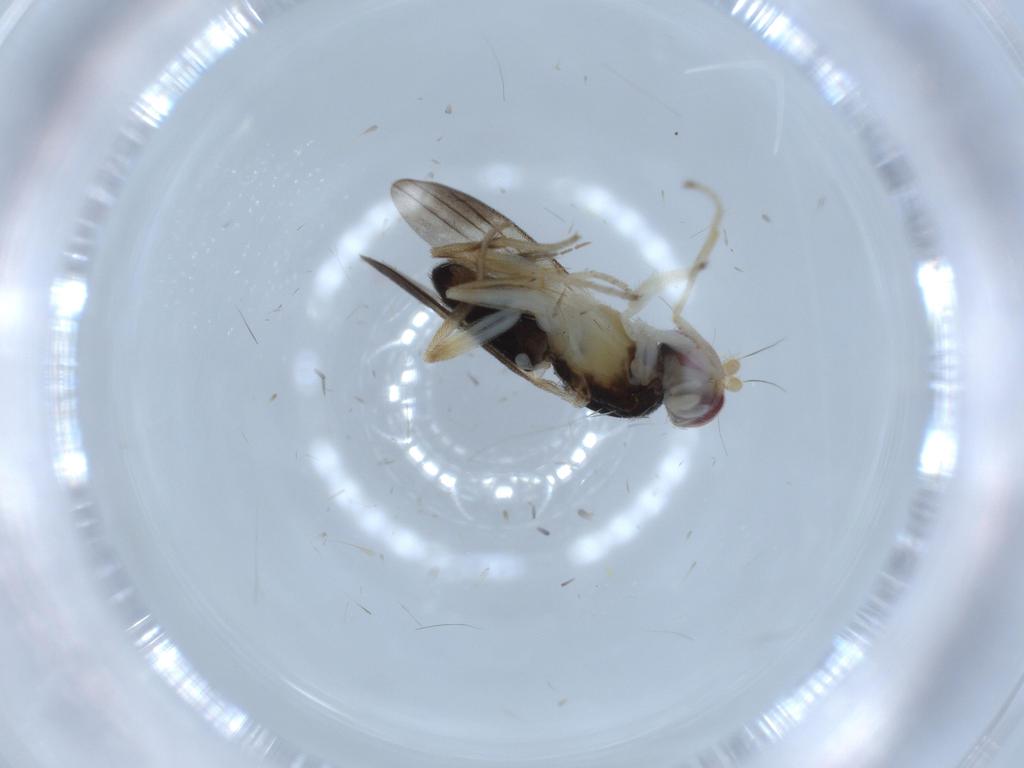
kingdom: Animalia
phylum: Arthropoda
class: Insecta
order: Diptera
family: Clusiidae
